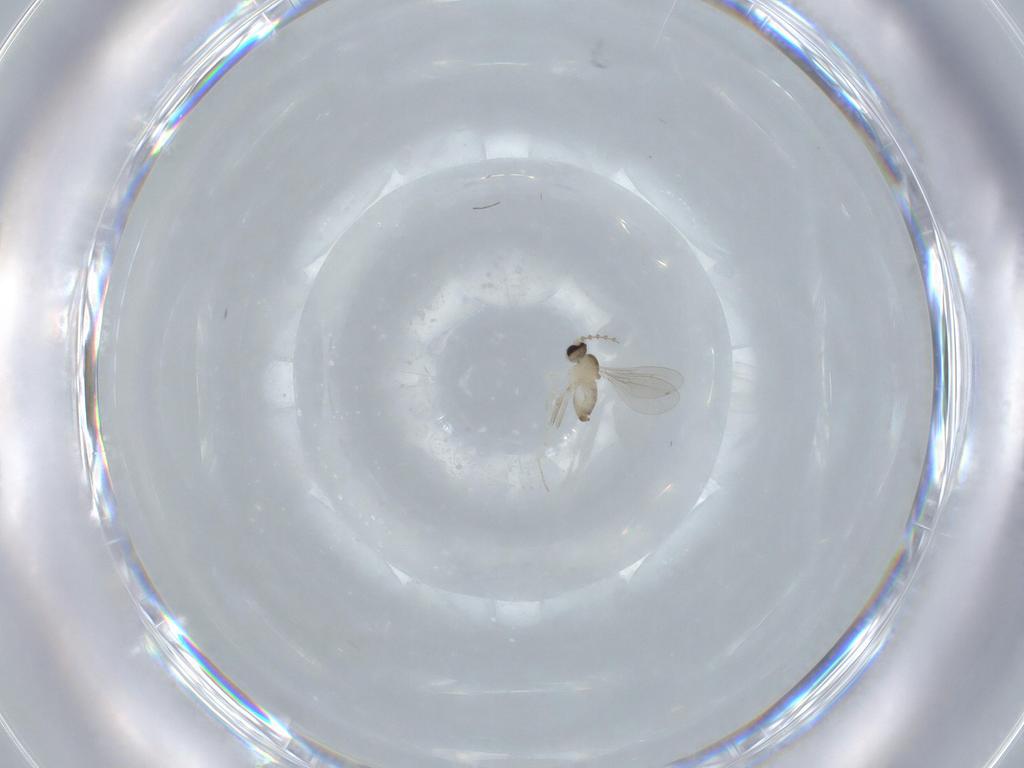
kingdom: Animalia
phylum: Arthropoda
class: Insecta
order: Diptera
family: Cecidomyiidae
